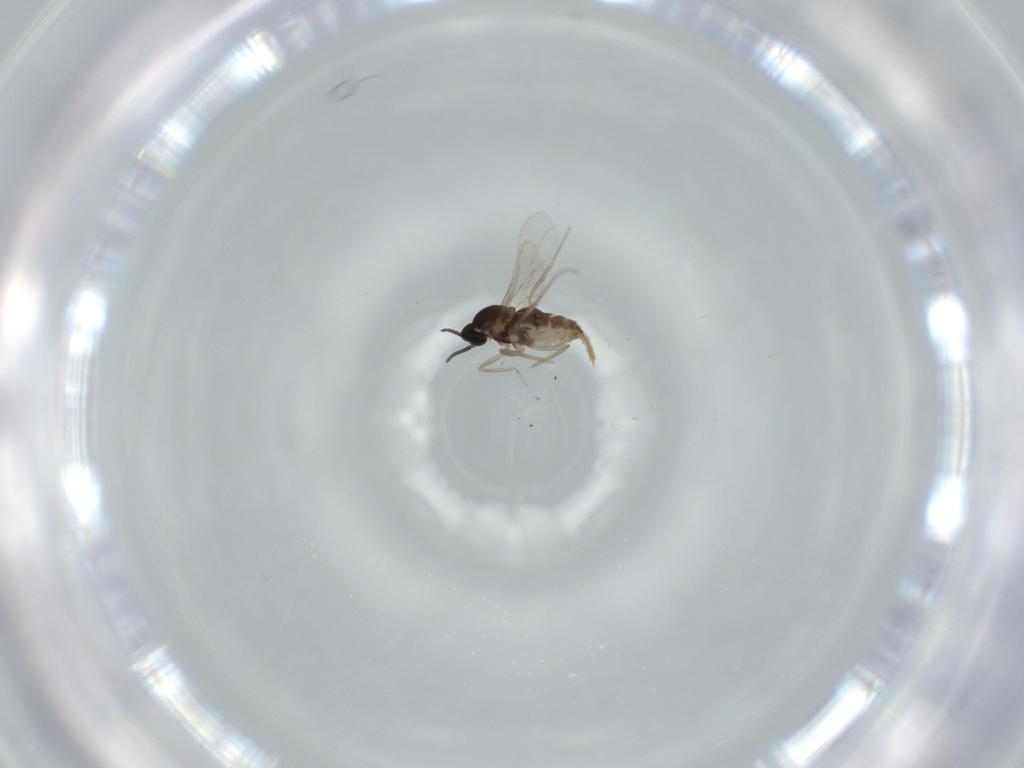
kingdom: Animalia
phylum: Arthropoda
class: Insecta
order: Diptera
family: Cecidomyiidae
